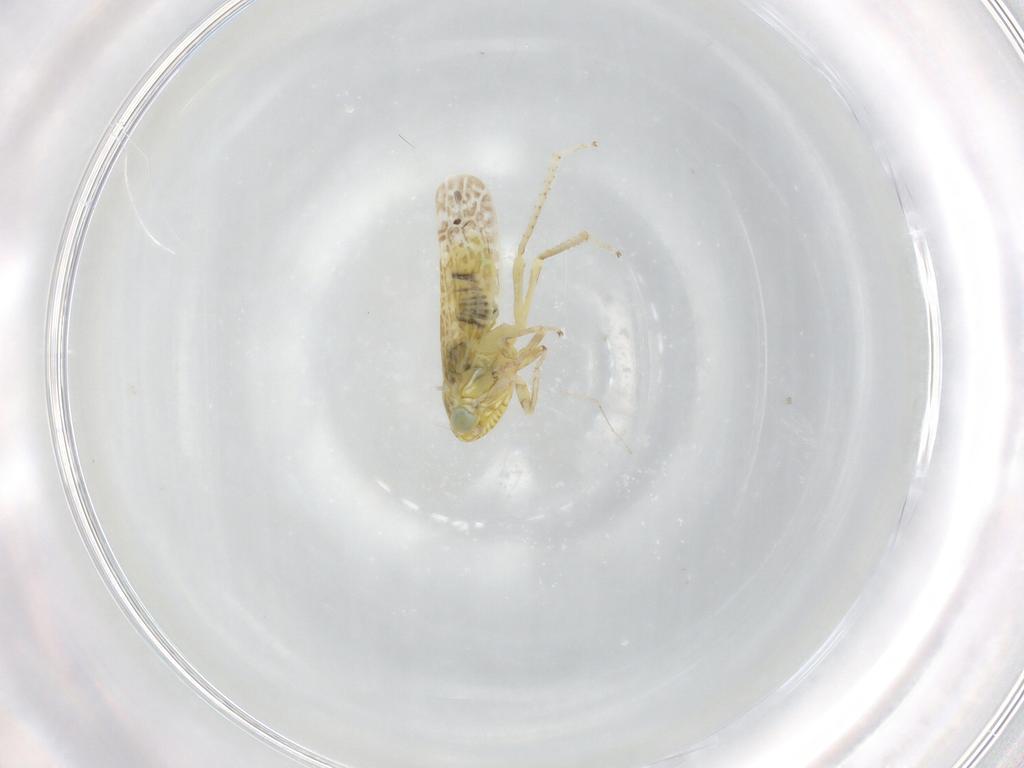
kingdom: Animalia
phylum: Arthropoda
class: Insecta
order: Hemiptera
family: Cicadellidae
